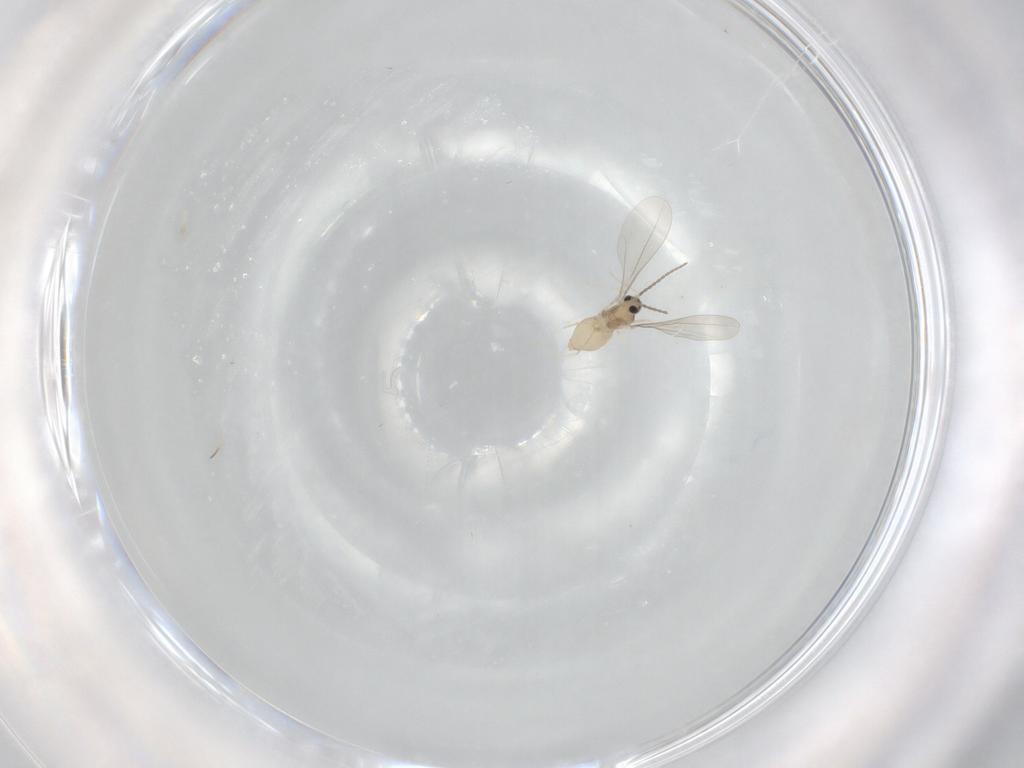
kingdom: Animalia
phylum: Arthropoda
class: Insecta
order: Diptera
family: Cecidomyiidae
